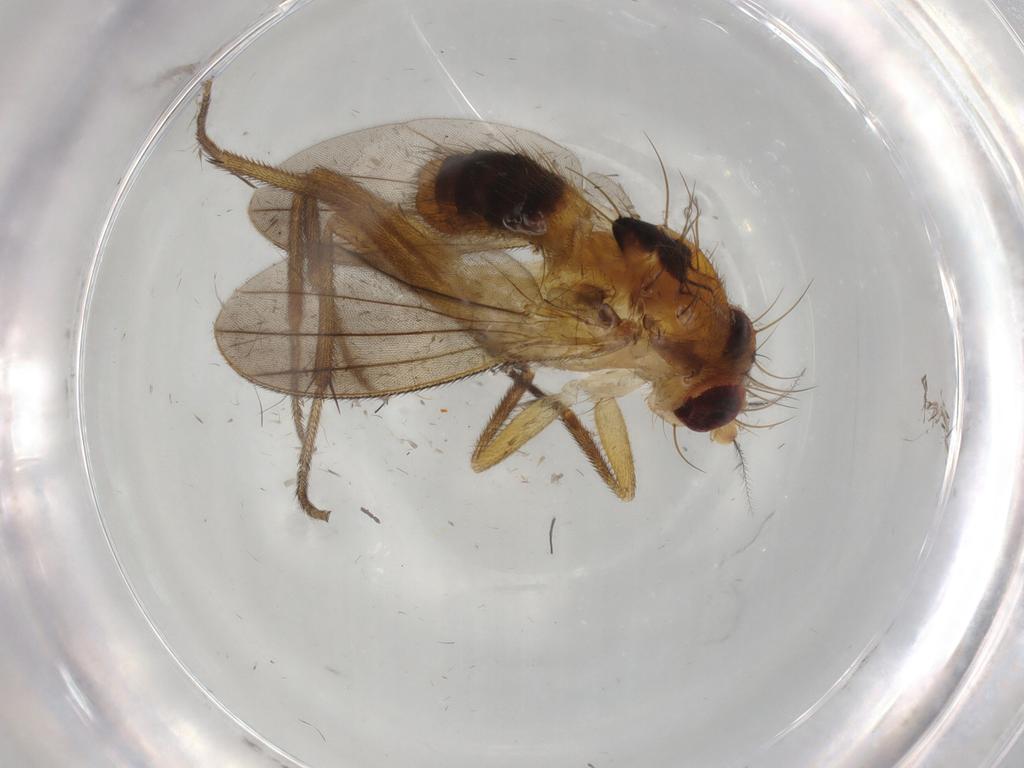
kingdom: Animalia
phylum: Arthropoda
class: Insecta
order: Diptera
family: Clusiidae
